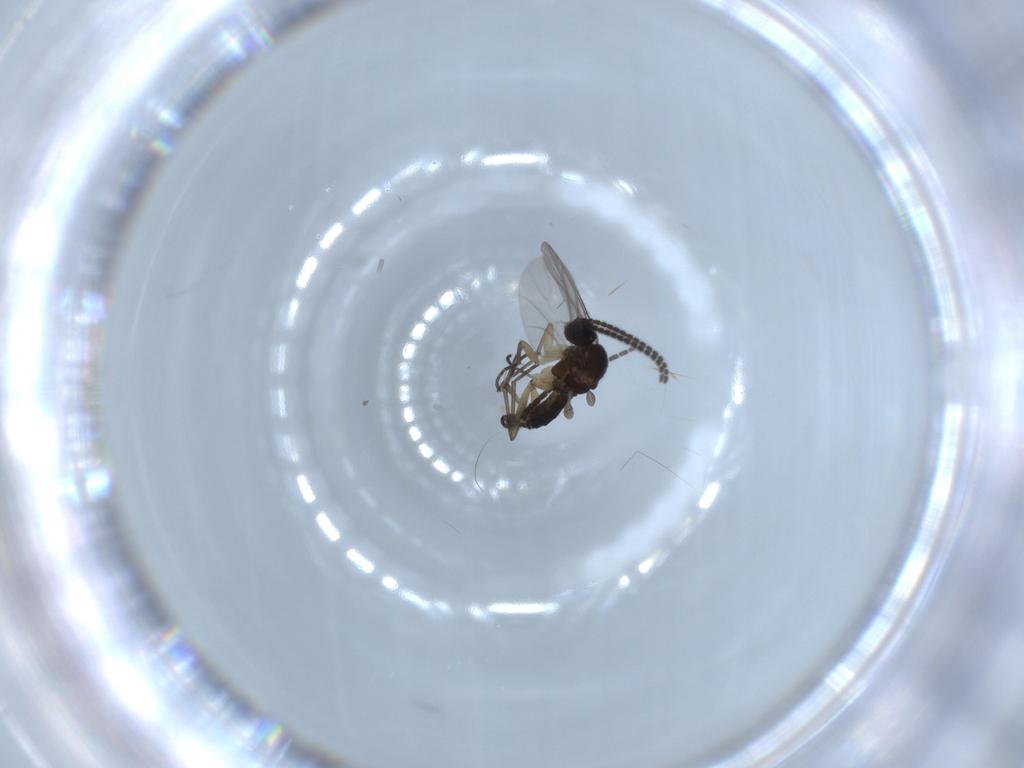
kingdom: Animalia
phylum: Arthropoda
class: Insecta
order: Diptera
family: Sciaridae
